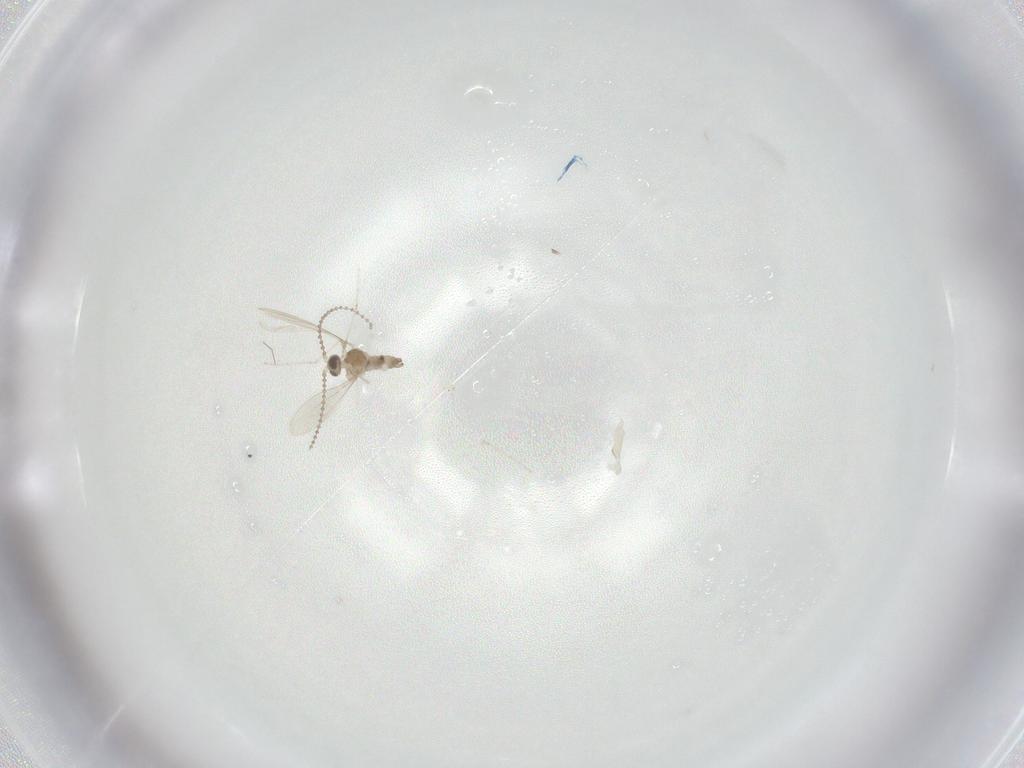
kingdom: Animalia
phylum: Arthropoda
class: Insecta
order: Diptera
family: Cecidomyiidae
